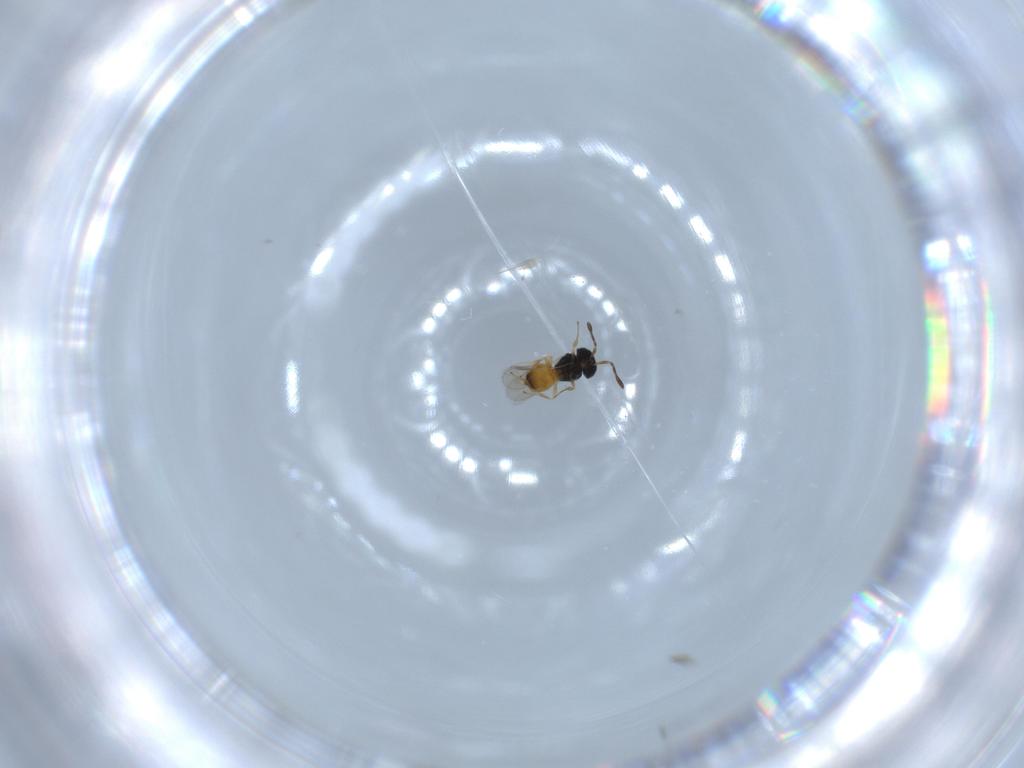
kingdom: Animalia
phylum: Arthropoda
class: Insecta
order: Hymenoptera
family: Scelionidae
